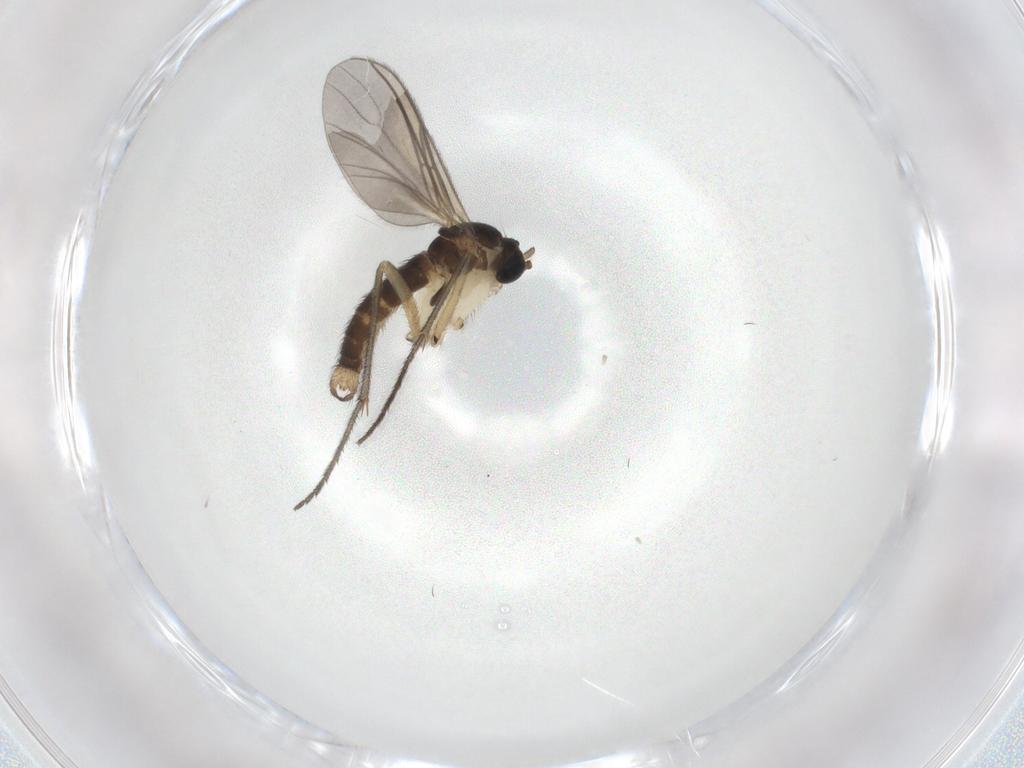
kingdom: Animalia
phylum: Arthropoda
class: Insecta
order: Diptera
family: Sciaridae
